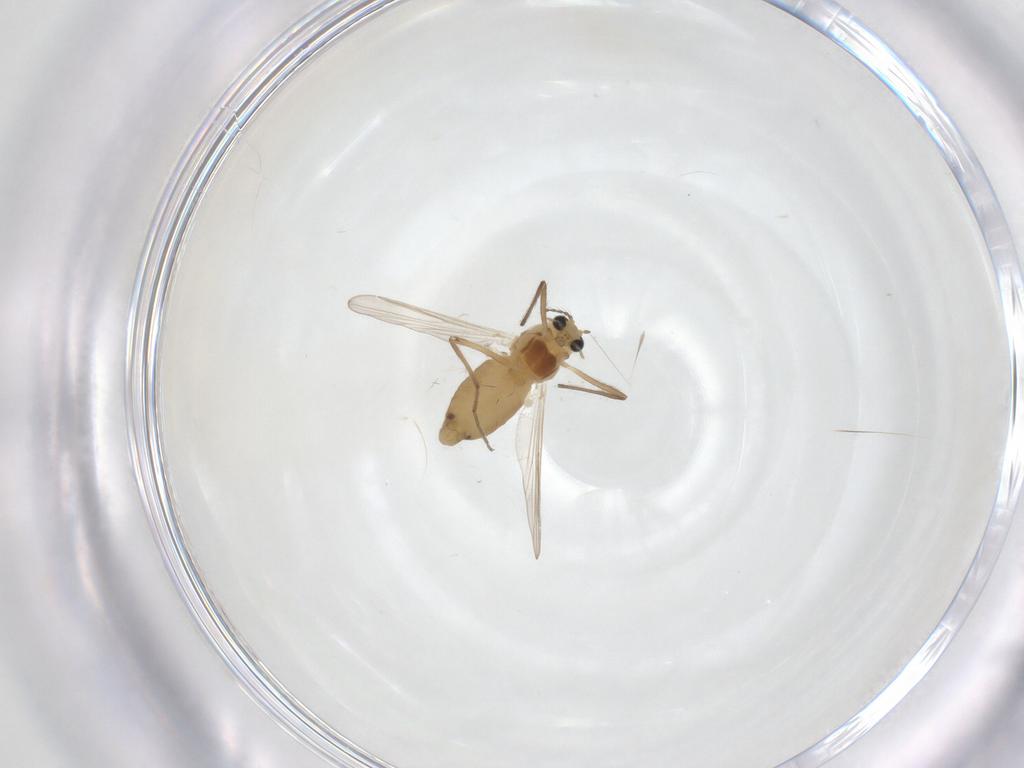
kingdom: Animalia
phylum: Arthropoda
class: Insecta
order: Diptera
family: Chironomidae
